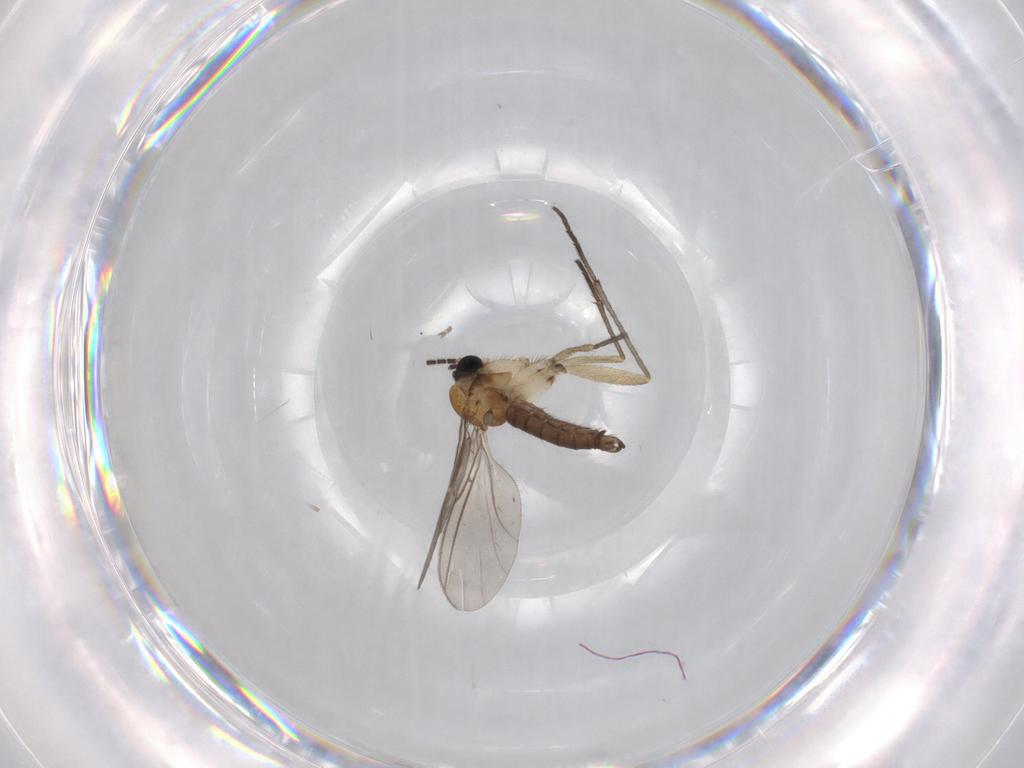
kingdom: Animalia
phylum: Arthropoda
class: Insecta
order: Diptera
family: Sciaridae
